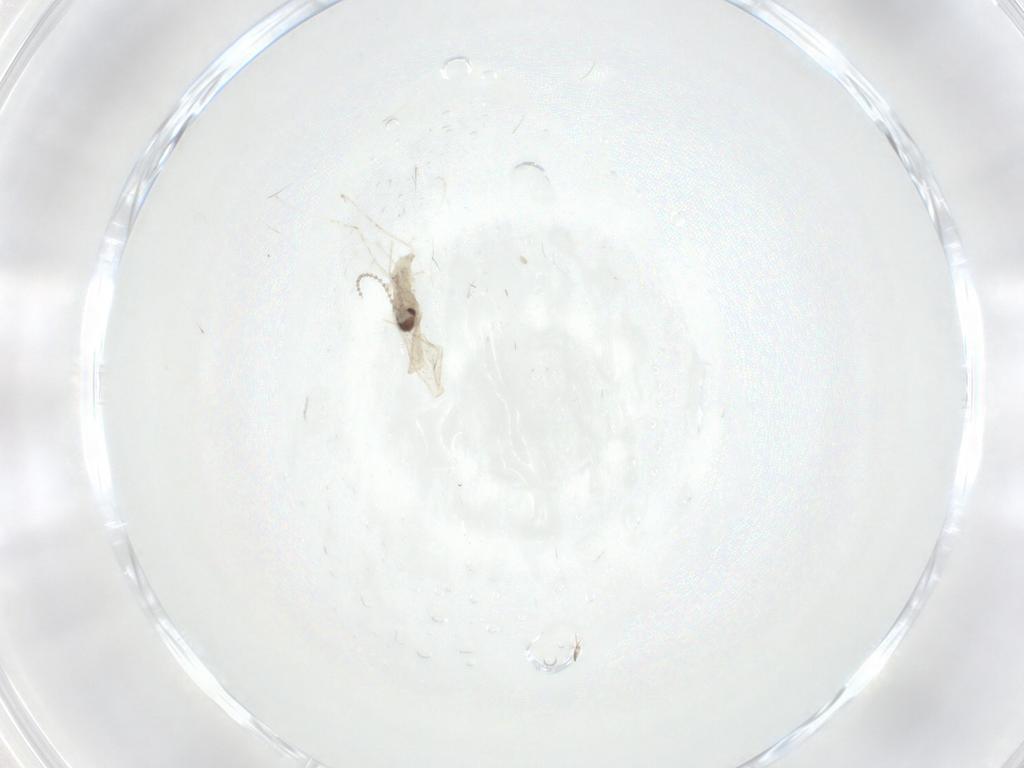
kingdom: Animalia
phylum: Arthropoda
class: Insecta
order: Diptera
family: Cecidomyiidae
